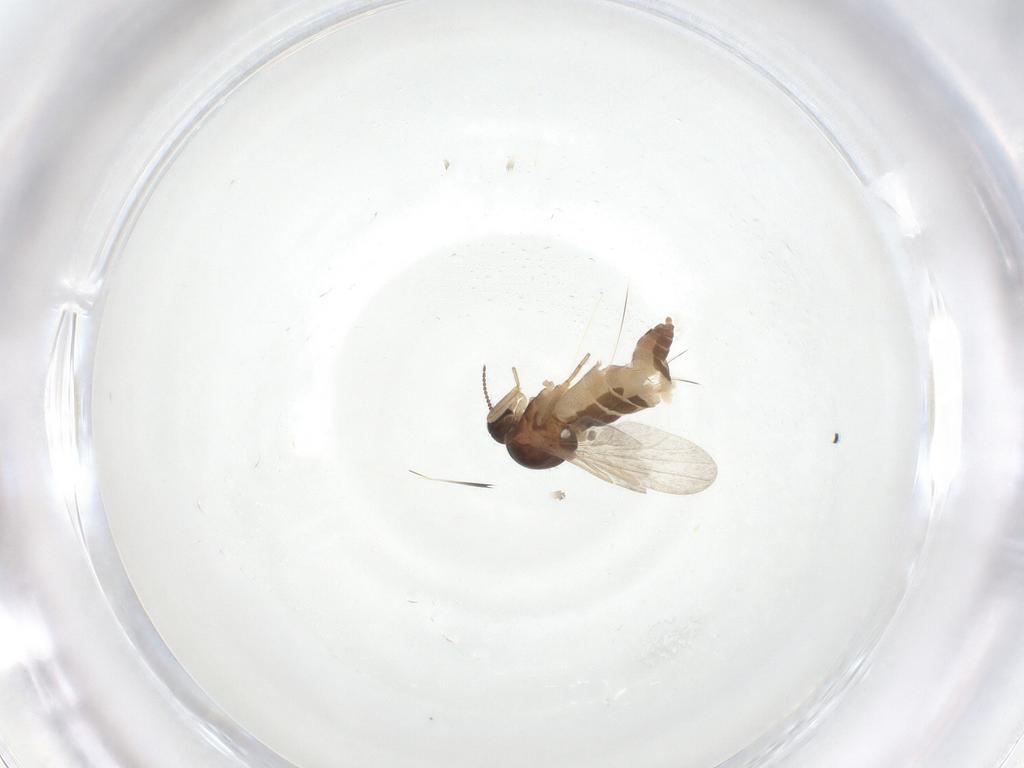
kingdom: Animalia
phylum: Arthropoda
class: Insecta
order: Diptera
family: Ceratopogonidae
